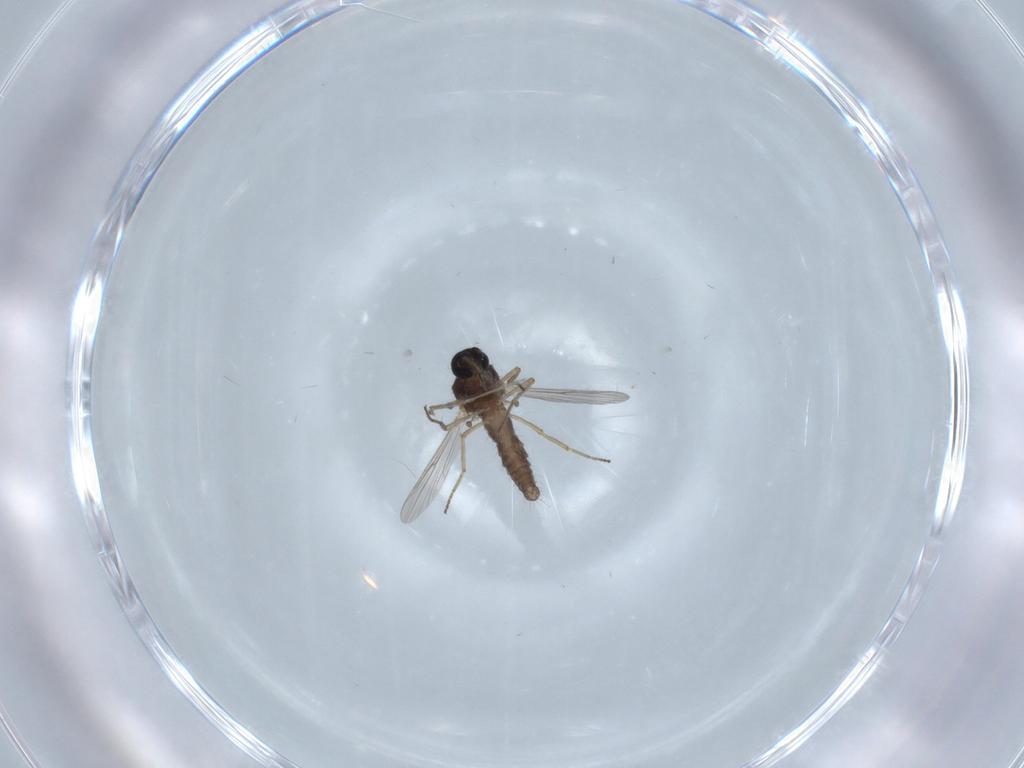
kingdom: Animalia
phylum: Arthropoda
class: Insecta
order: Diptera
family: Ceratopogonidae
